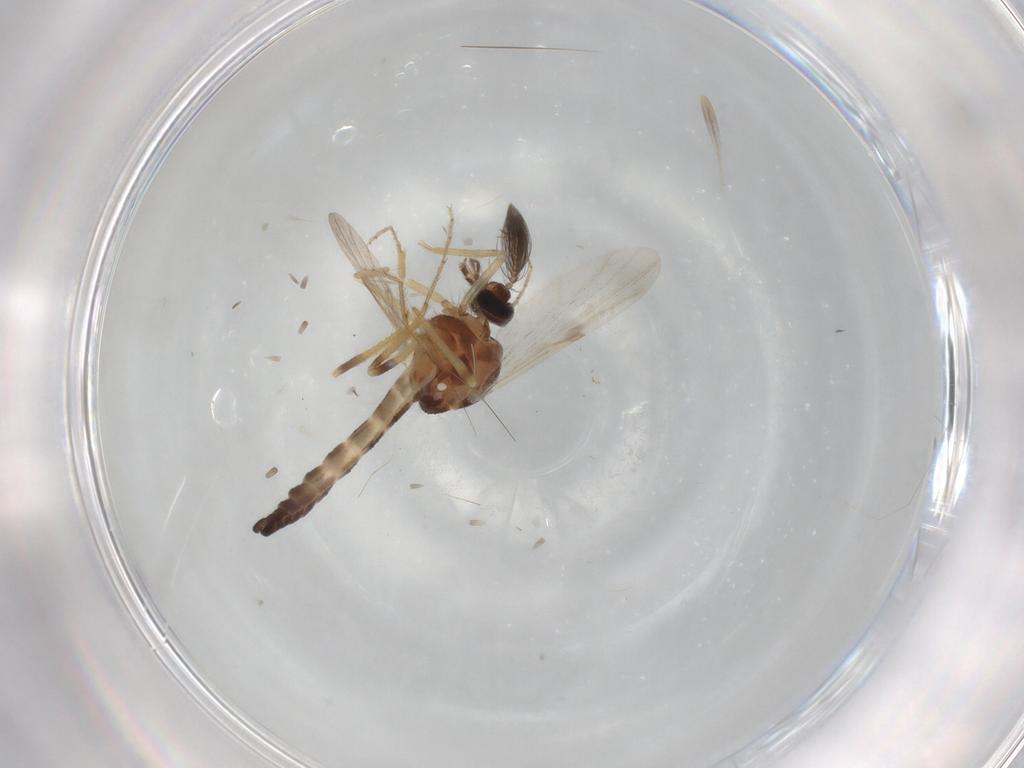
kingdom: Animalia
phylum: Arthropoda
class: Insecta
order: Diptera
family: Ceratopogonidae
